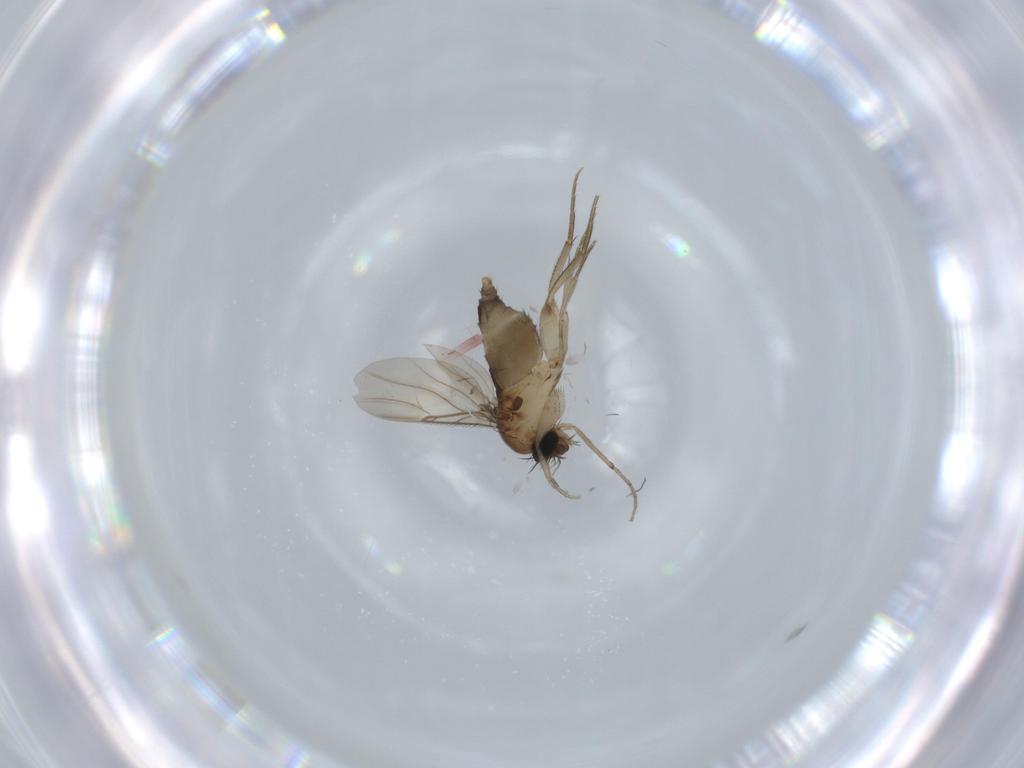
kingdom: Animalia
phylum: Arthropoda
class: Insecta
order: Diptera
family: Phoridae
